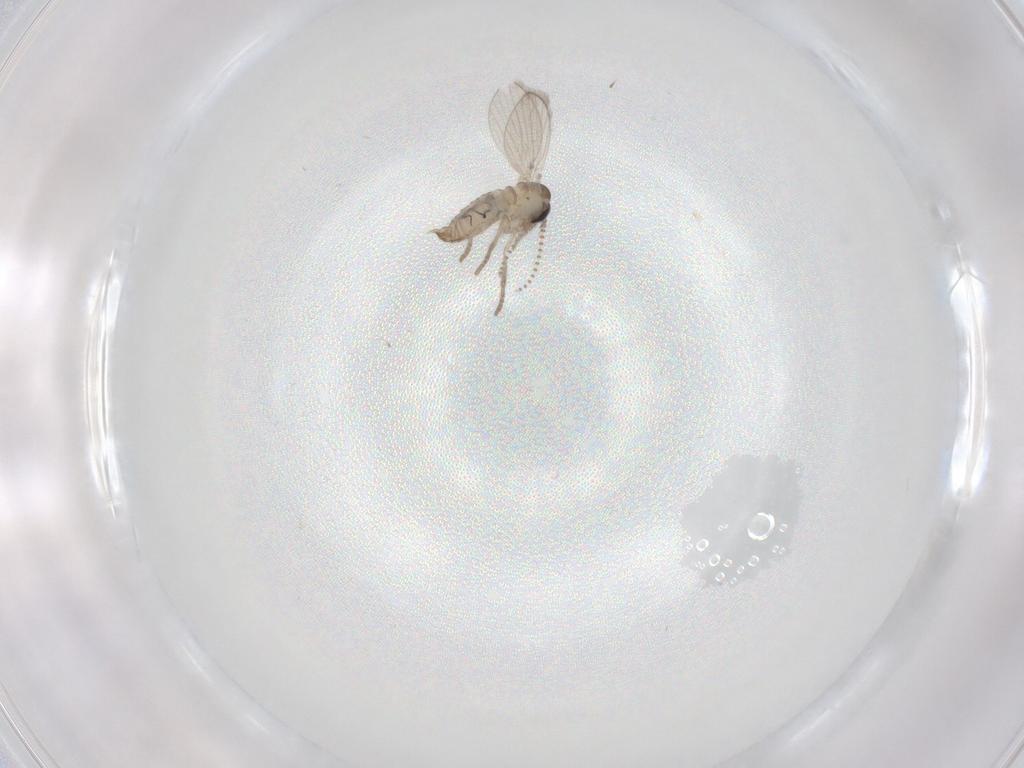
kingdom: Animalia
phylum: Arthropoda
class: Insecta
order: Diptera
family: Psychodidae
